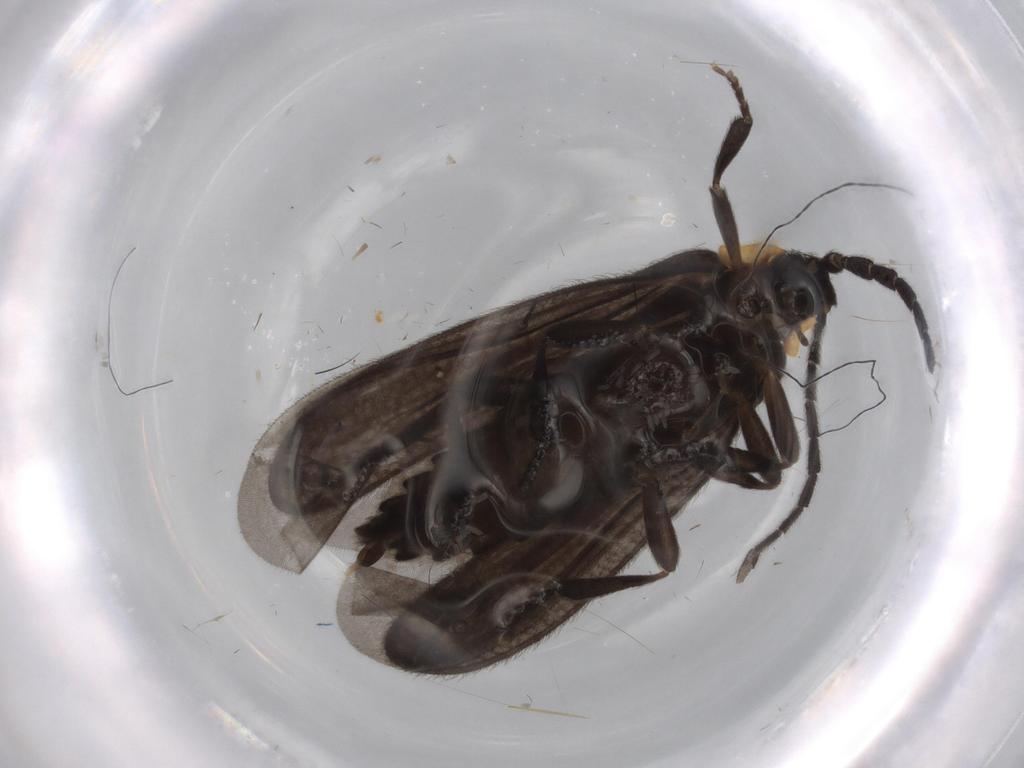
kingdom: Animalia
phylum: Arthropoda
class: Insecta
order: Coleoptera
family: Lycidae
